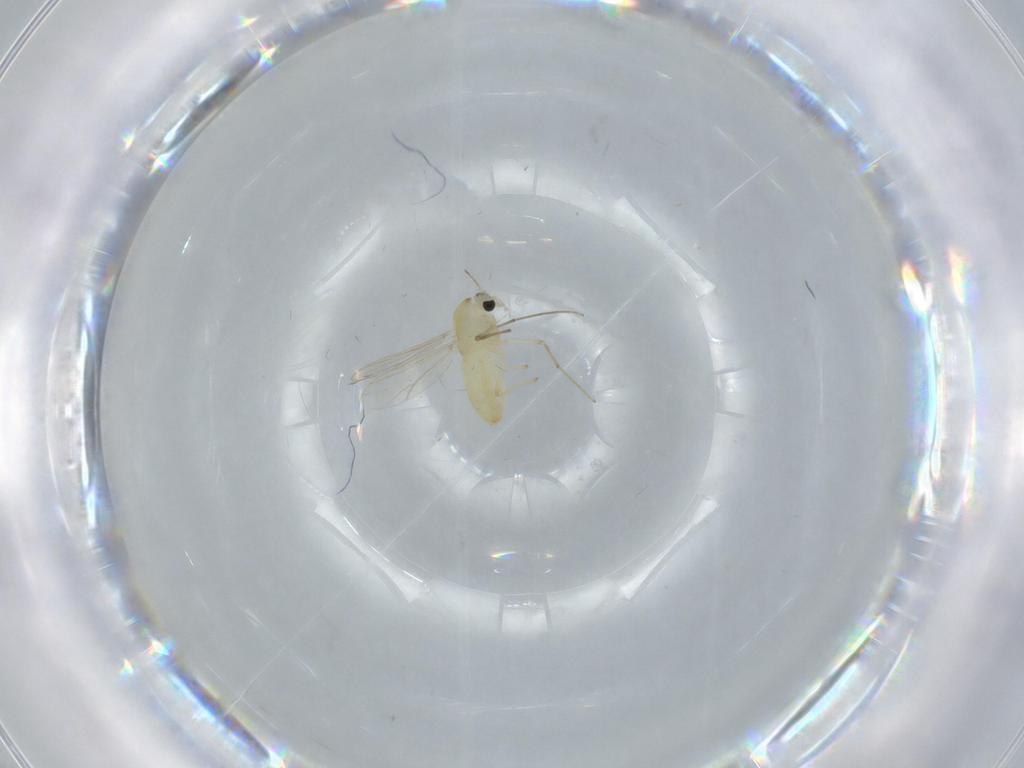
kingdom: Animalia
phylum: Arthropoda
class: Insecta
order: Diptera
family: Chironomidae
